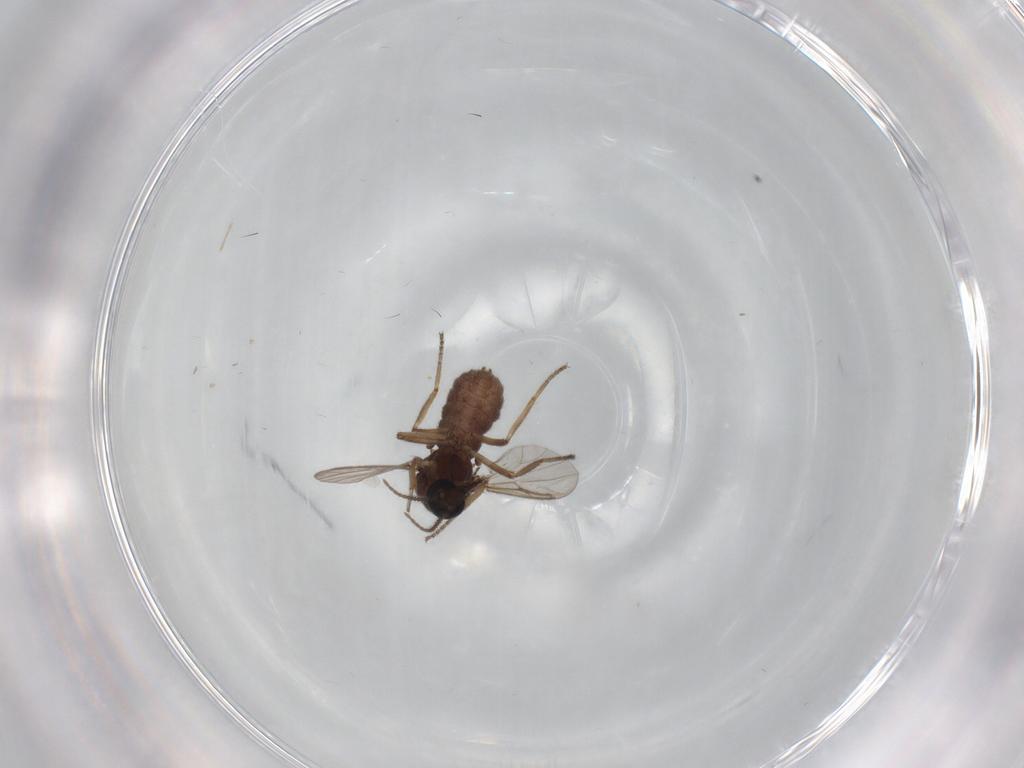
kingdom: Animalia
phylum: Arthropoda
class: Insecta
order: Diptera
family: Ceratopogonidae
